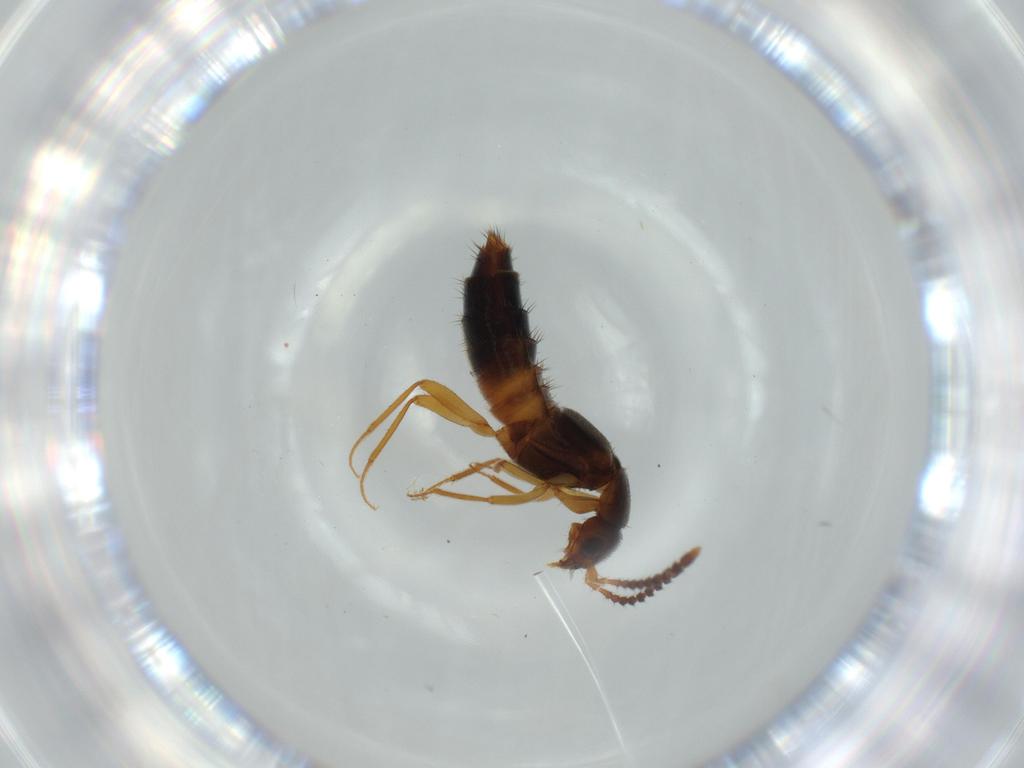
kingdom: Animalia
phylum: Arthropoda
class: Insecta
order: Coleoptera
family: Staphylinidae
